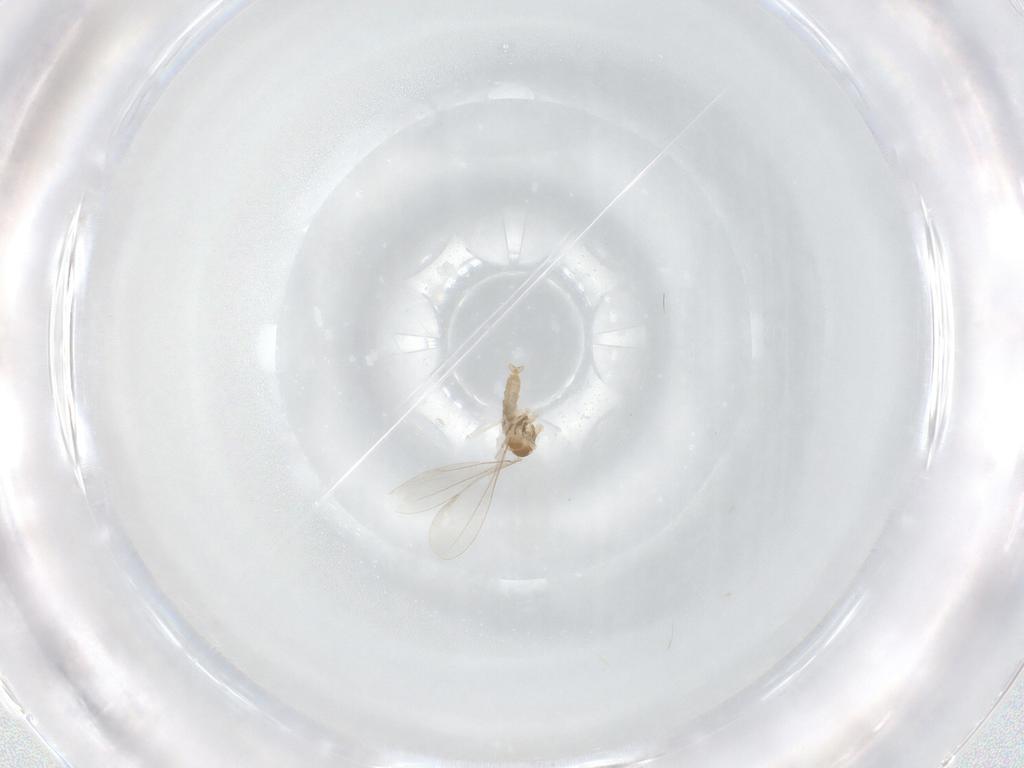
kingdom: Animalia
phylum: Arthropoda
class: Insecta
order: Diptera
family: Cecidomyiidae
